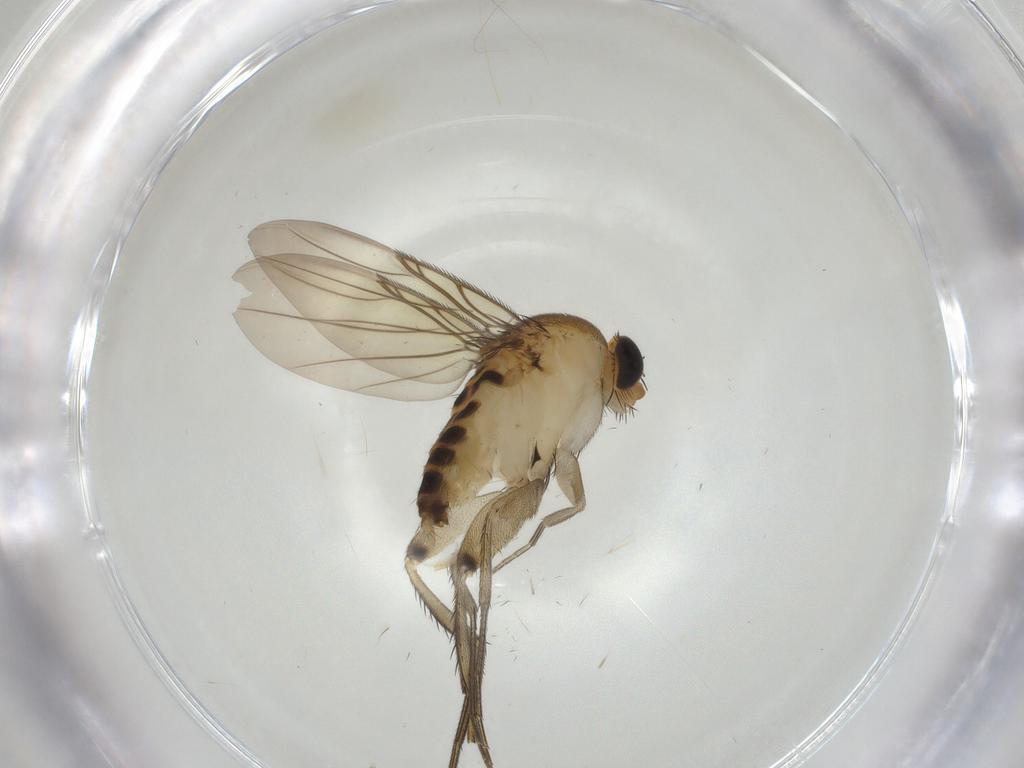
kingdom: Animalia
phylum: Arthropoda
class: Insecta
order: Diptera
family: Phoridae
